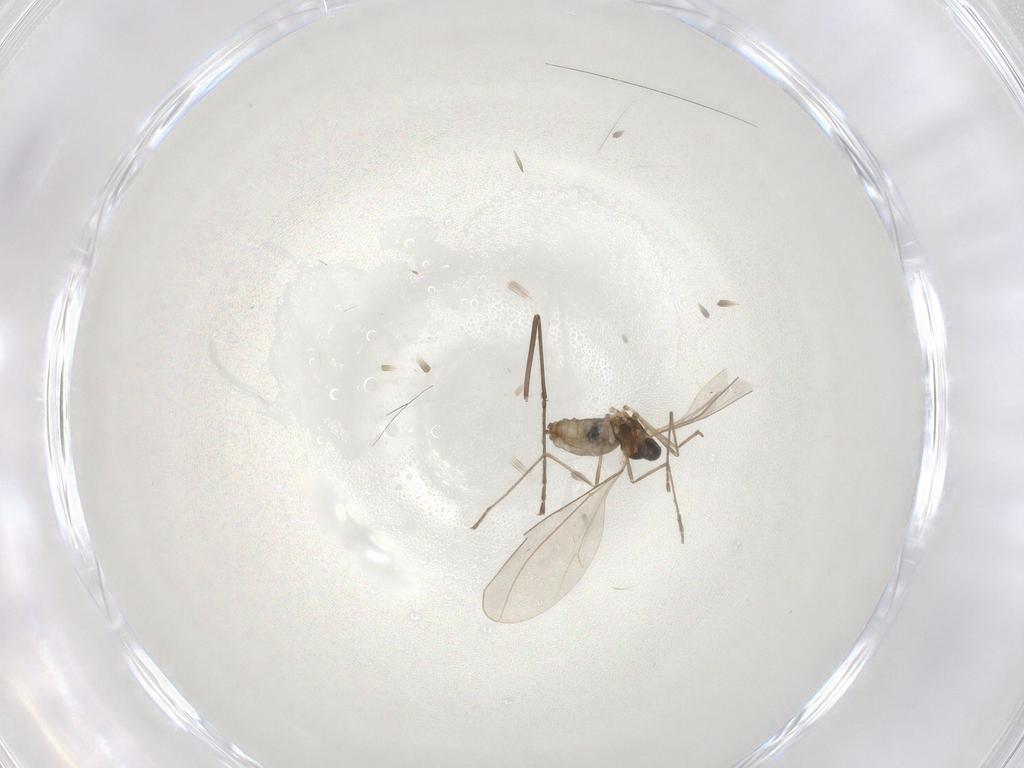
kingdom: Animalia
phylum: Arthropoda
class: Insecta
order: Diptera
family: Cecidomyiidae
